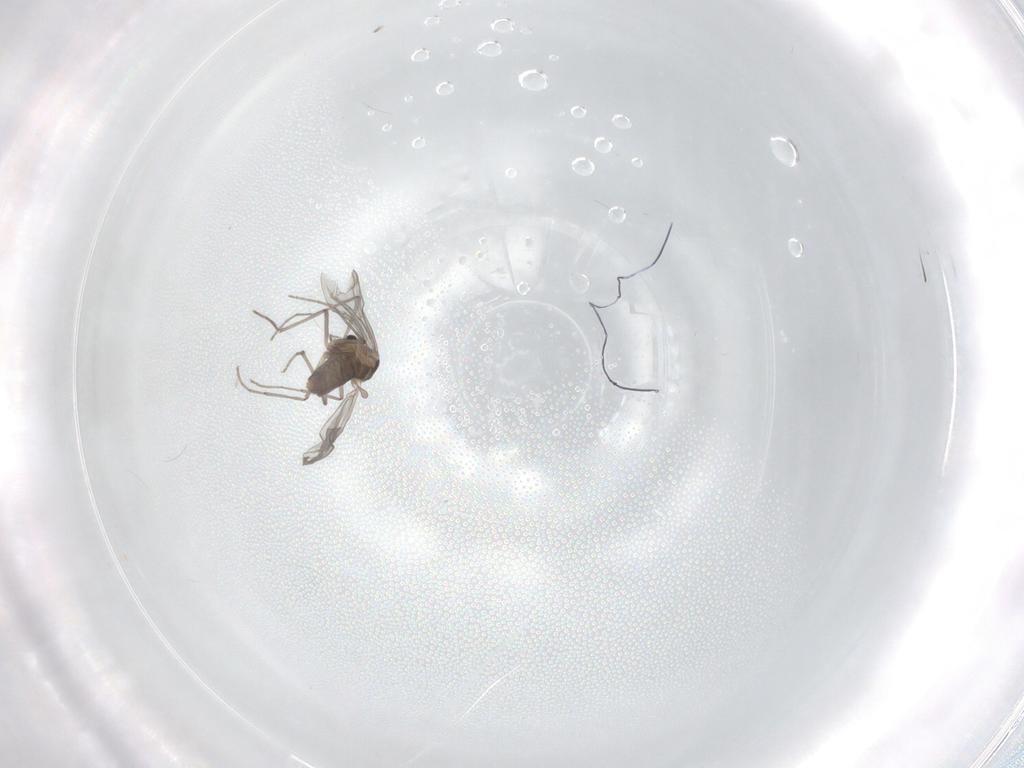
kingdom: Animalia
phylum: Arthropoda
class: Insecta
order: Diptera
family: Chironomidae
